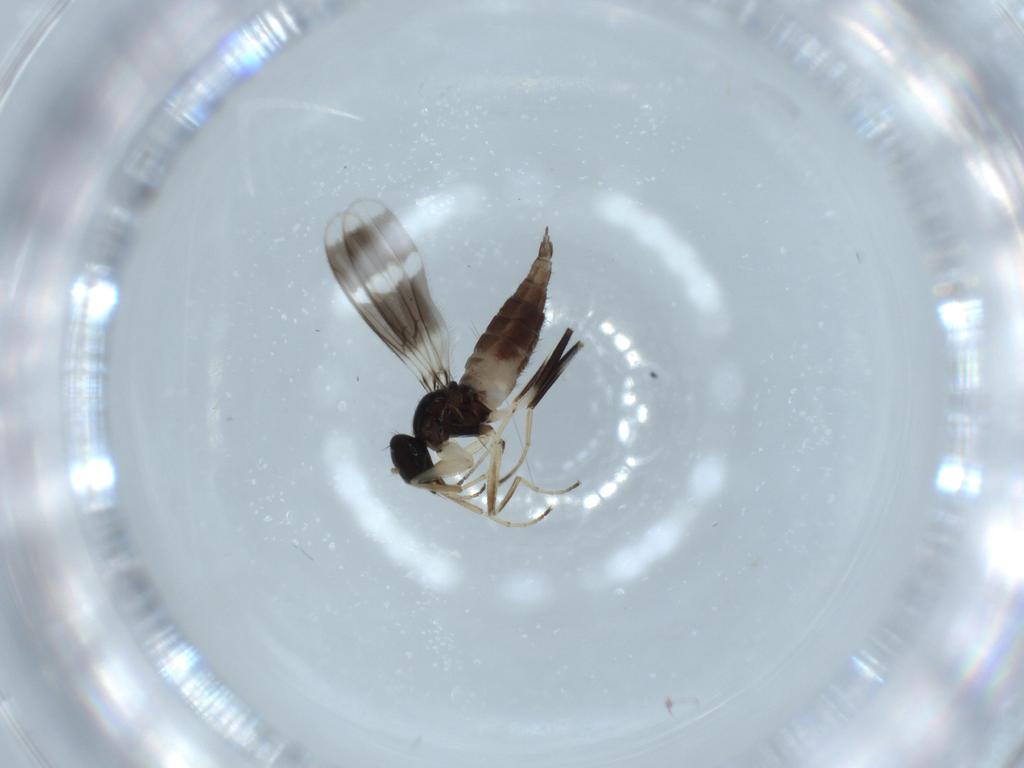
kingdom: Animalia
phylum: Arthropoda
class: Insecta
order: Diptera
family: Hybotidae
